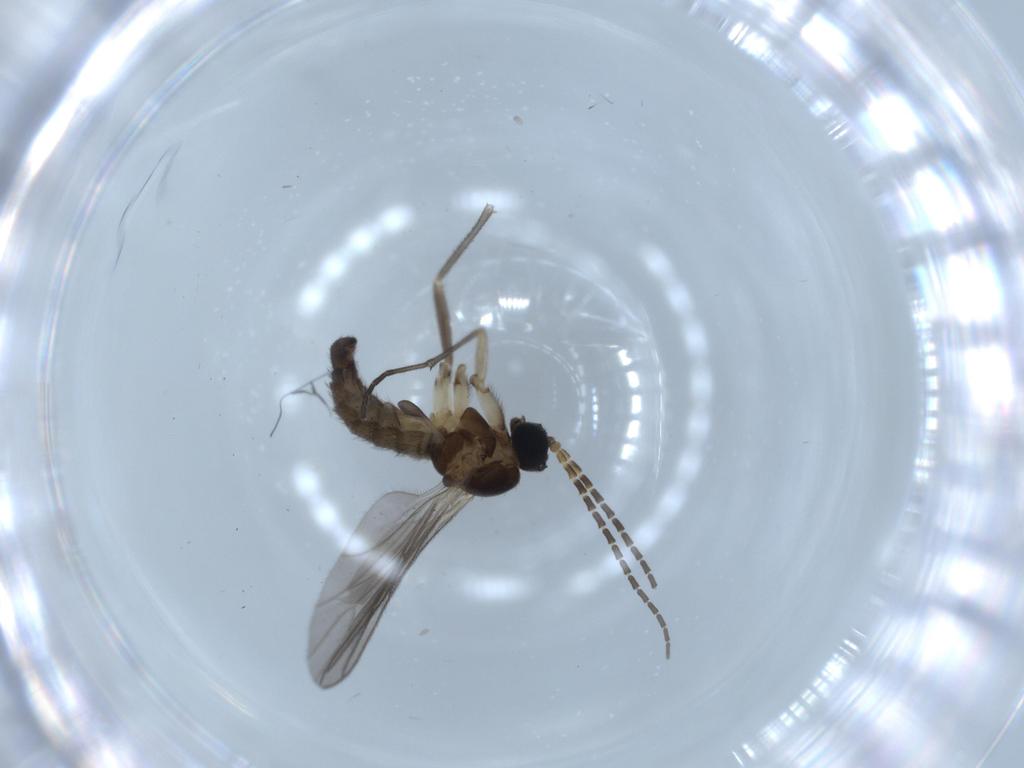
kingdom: Animalia
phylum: Arthropoda
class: Insecta
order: Diptera
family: Sciaridae
